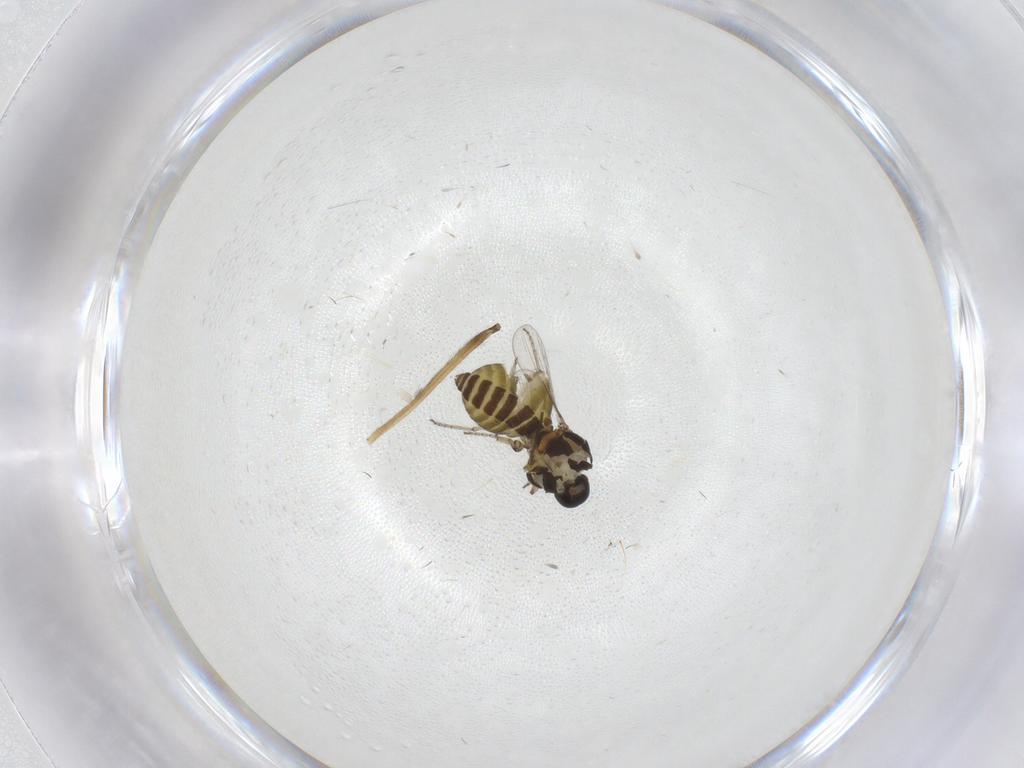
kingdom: Animalia
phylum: Arthropoda
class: Insecta
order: Diptera
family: Ceratopogonidae
